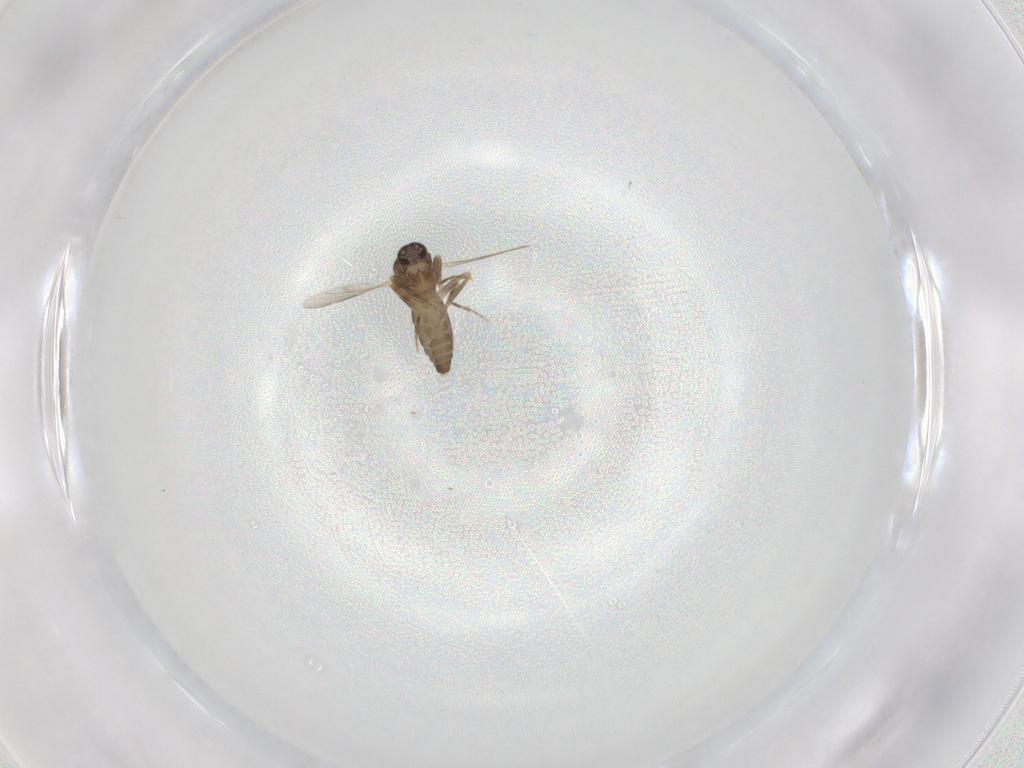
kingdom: Animalia
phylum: Arthropoda
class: Insecta
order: Diptera
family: Ceratopogonidae
